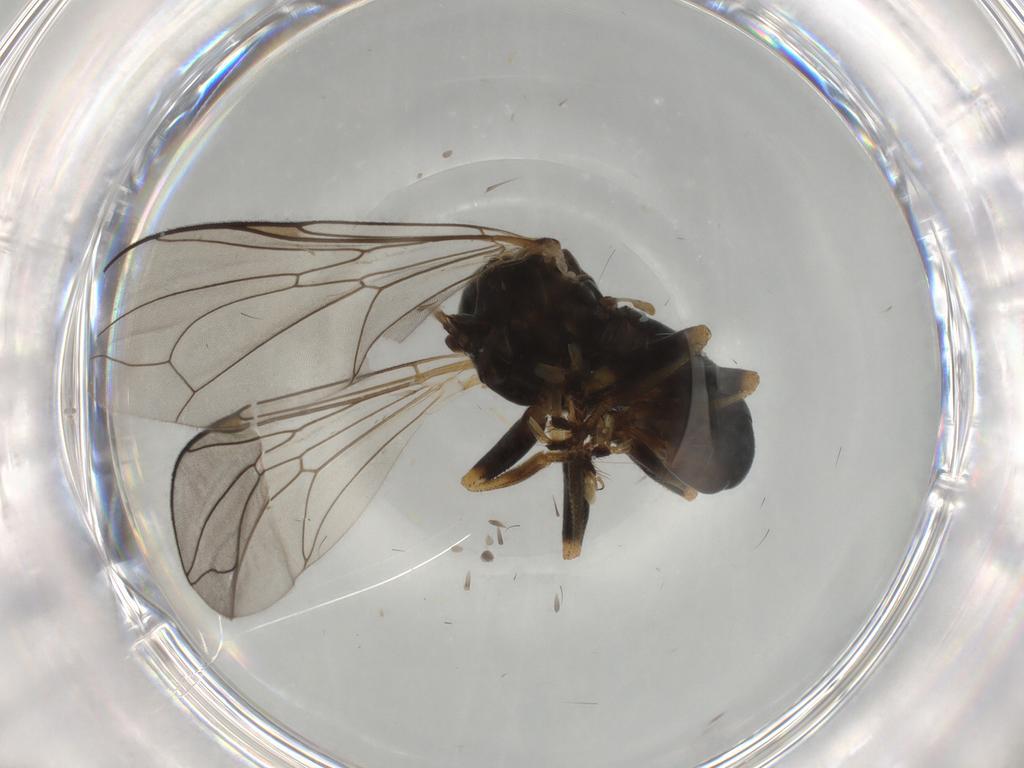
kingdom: Animalia
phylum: Arthropoda
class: Insecta
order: Diptera
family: Pipunculidae
